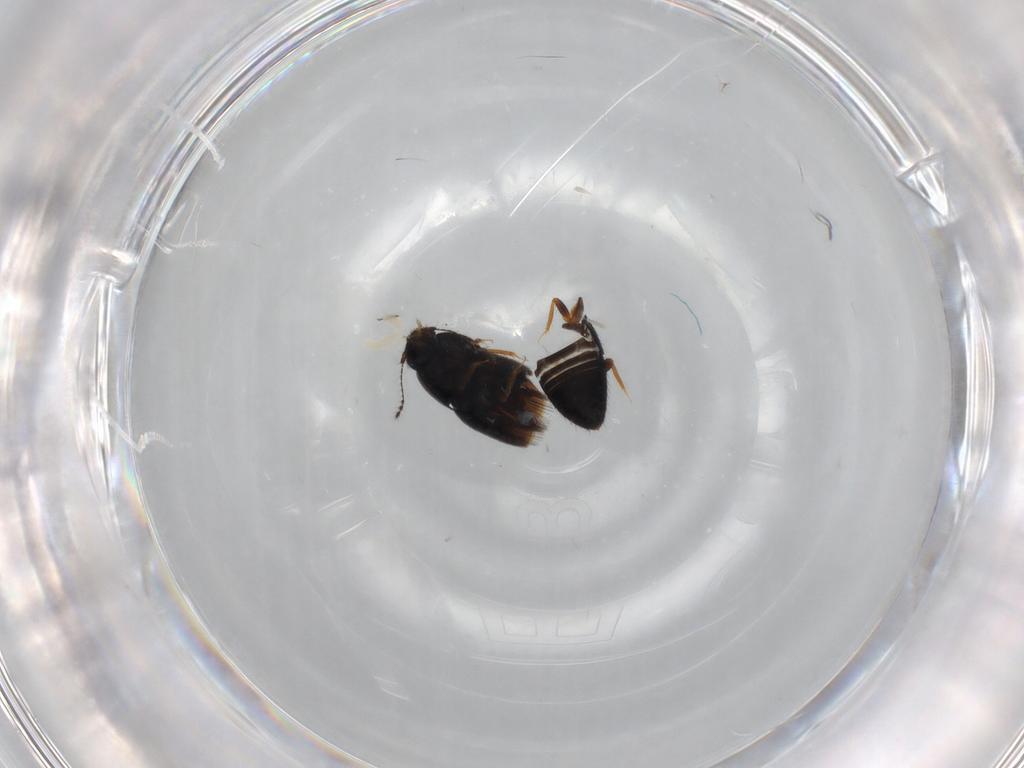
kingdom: Animalia
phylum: Arthropoda
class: Insecta
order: Coleoptera
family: Ptiliidae
